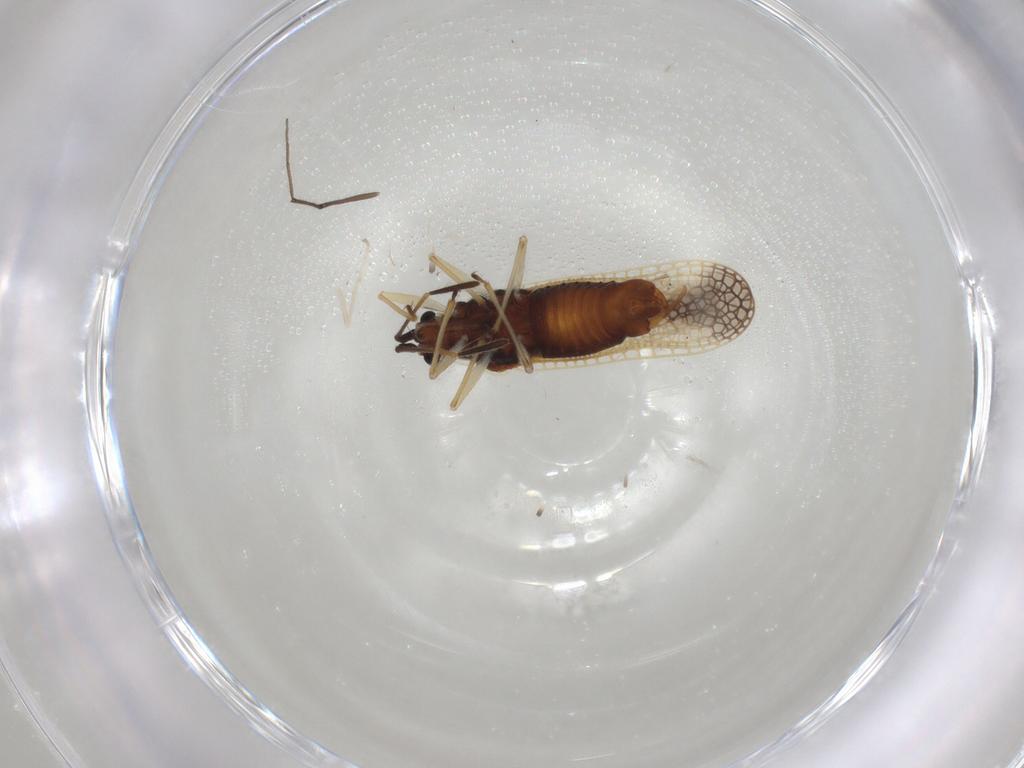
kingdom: Animalia
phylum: Arthropoda
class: Insecta
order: Hemiptera
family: Tingidae
